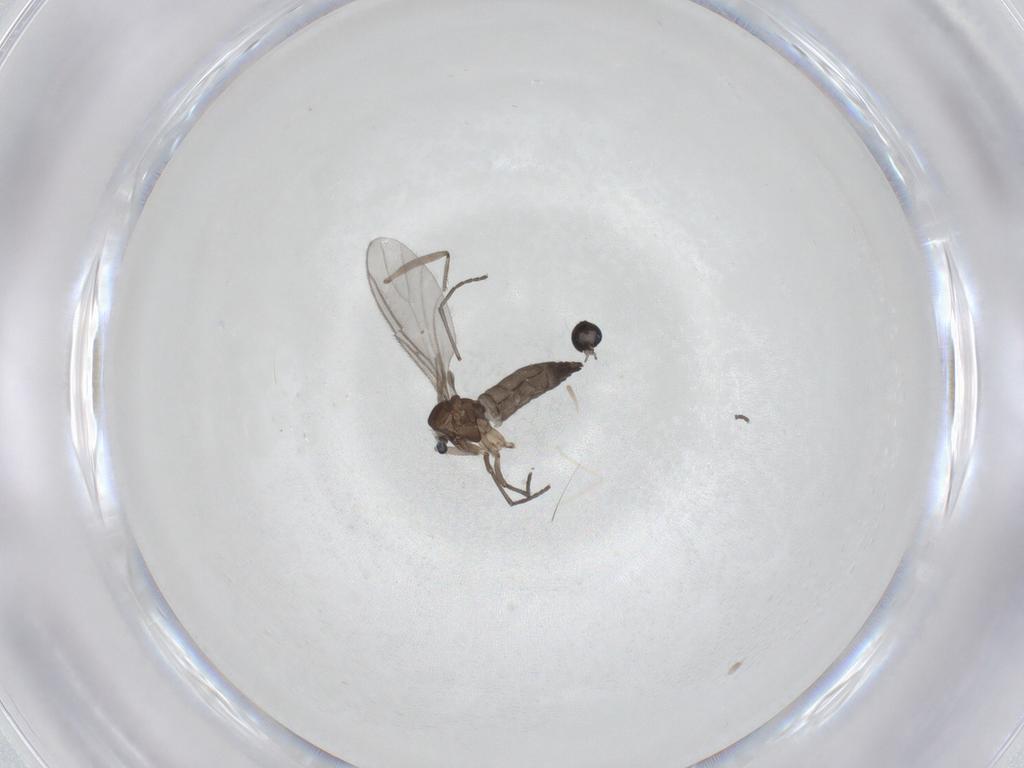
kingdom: Animalia
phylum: Arthropoda
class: Insecta
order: Diptera
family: Sciaridae
